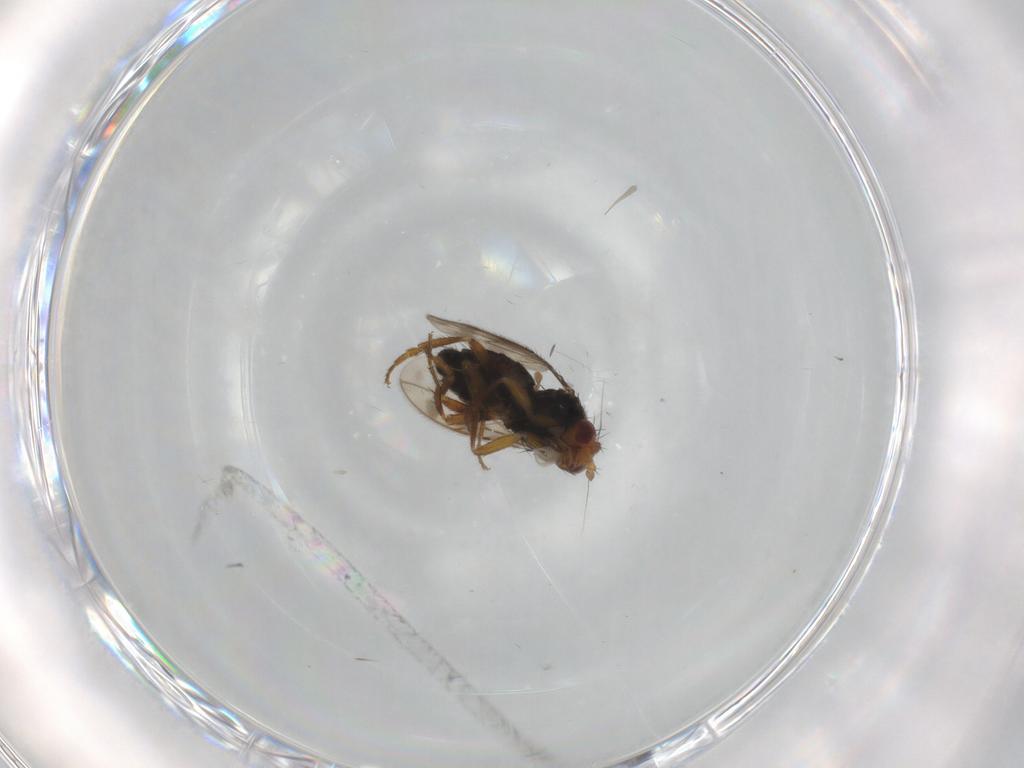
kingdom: Animalia
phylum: Arthropoda
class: Insecta
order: Diptera
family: Sphaeroceridae
